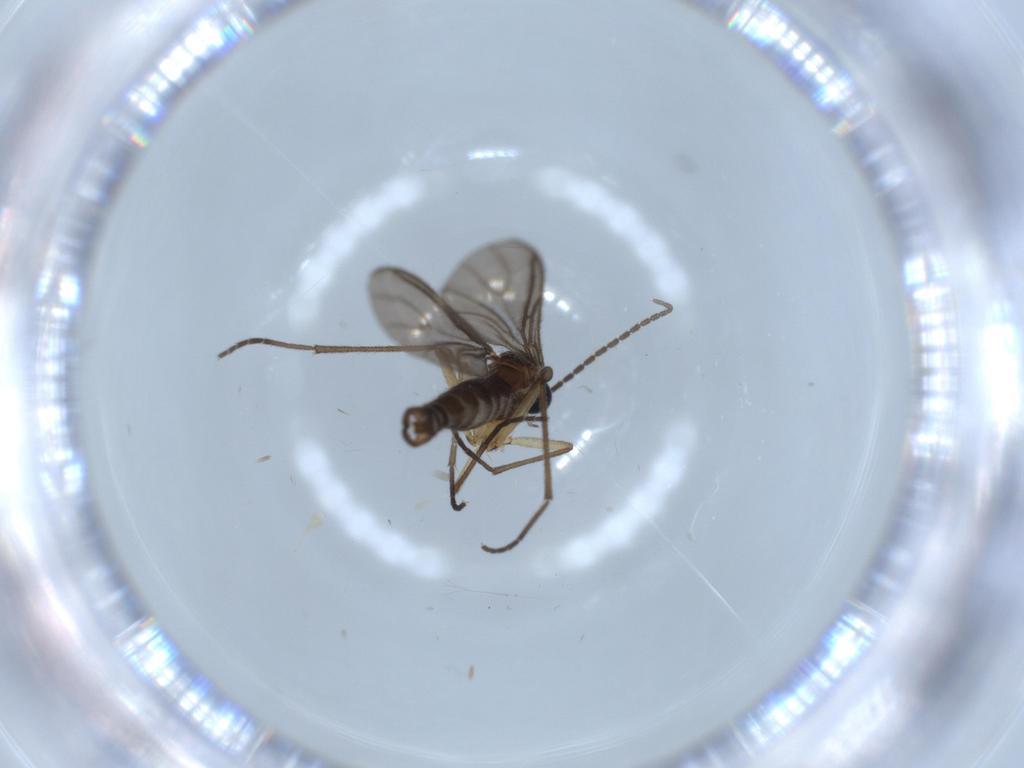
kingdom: Animalia
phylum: Arthropoda
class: Insecta
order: Diptera
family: Sciaridae
